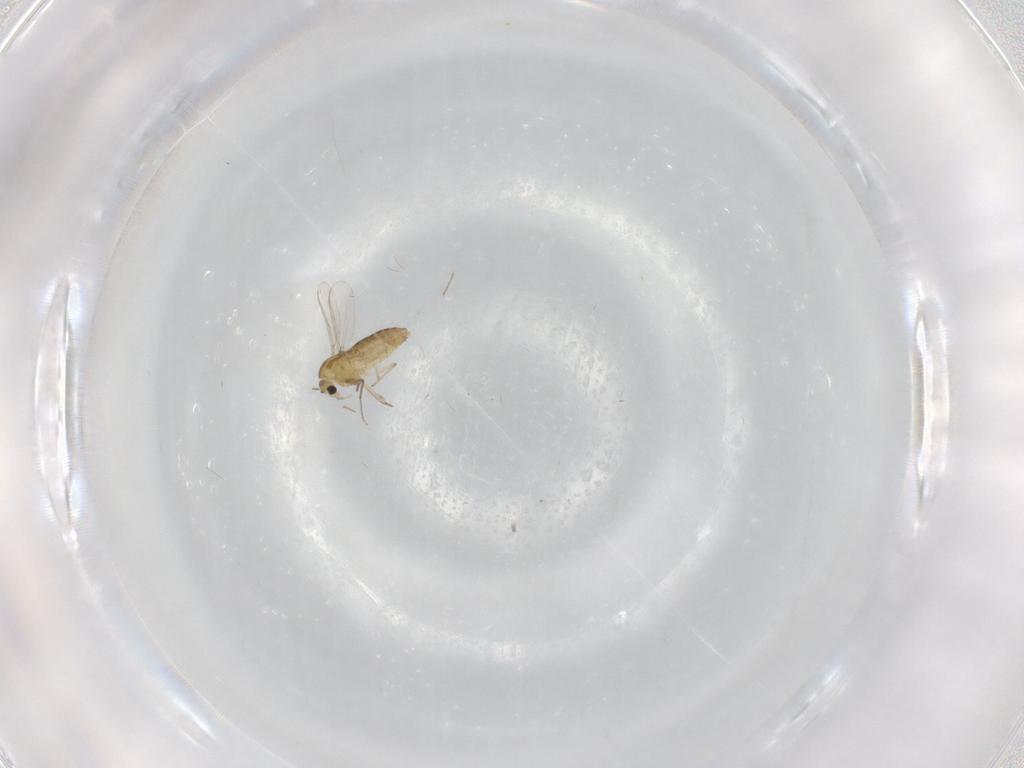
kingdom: Animalia
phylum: Arthropoda
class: Insecta
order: Diptera
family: Chironomidae
